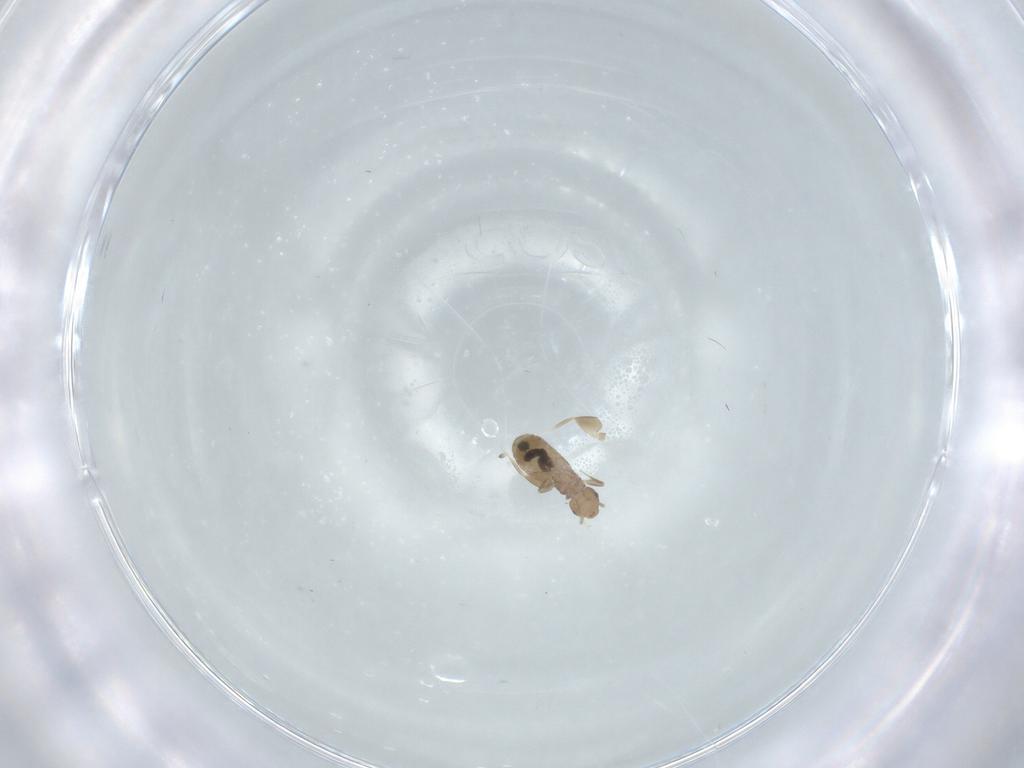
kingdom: Animalia
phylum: Arthropoda
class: Insecta
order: Psocodea
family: Liposcelididae
